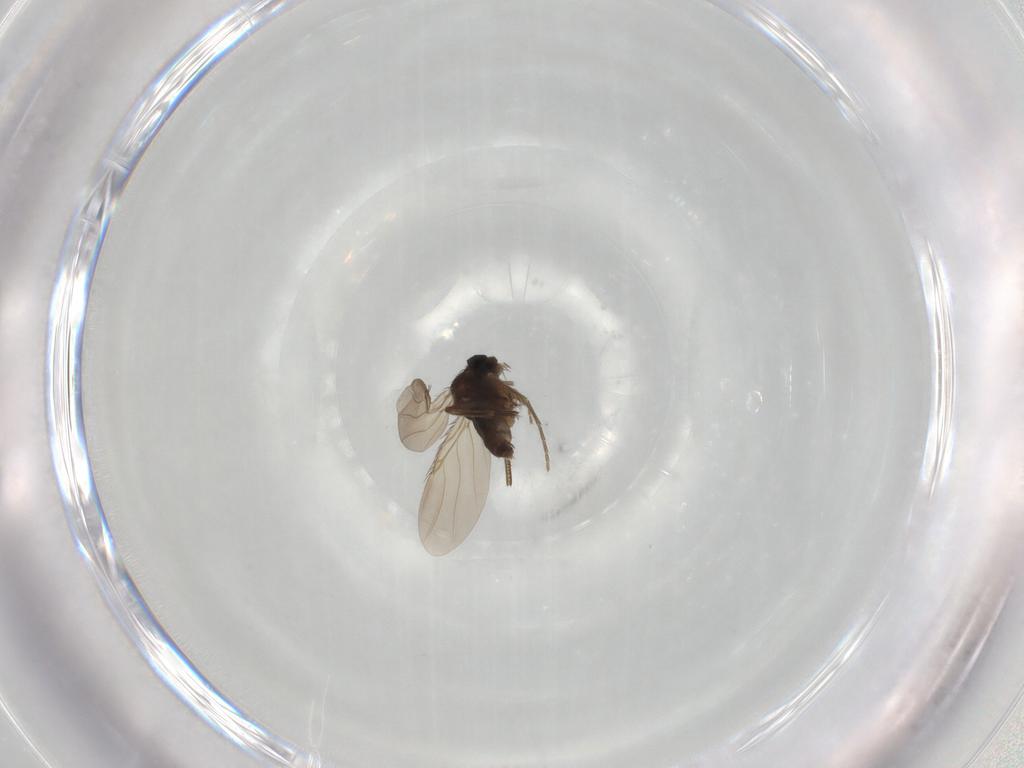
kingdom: Animalia
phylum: Arthropoda
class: Insecta
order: Diptera
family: Phoridae
